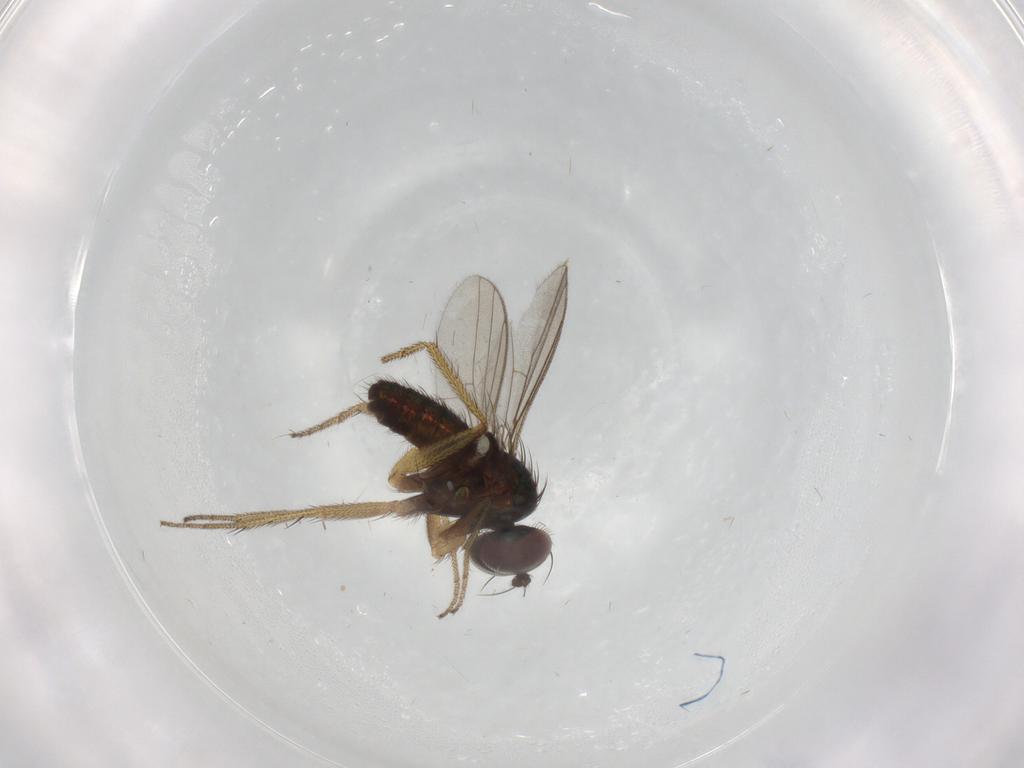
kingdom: Animalia
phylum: Arthropoda
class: Insecta
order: Diptera
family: Dolichopodidae
